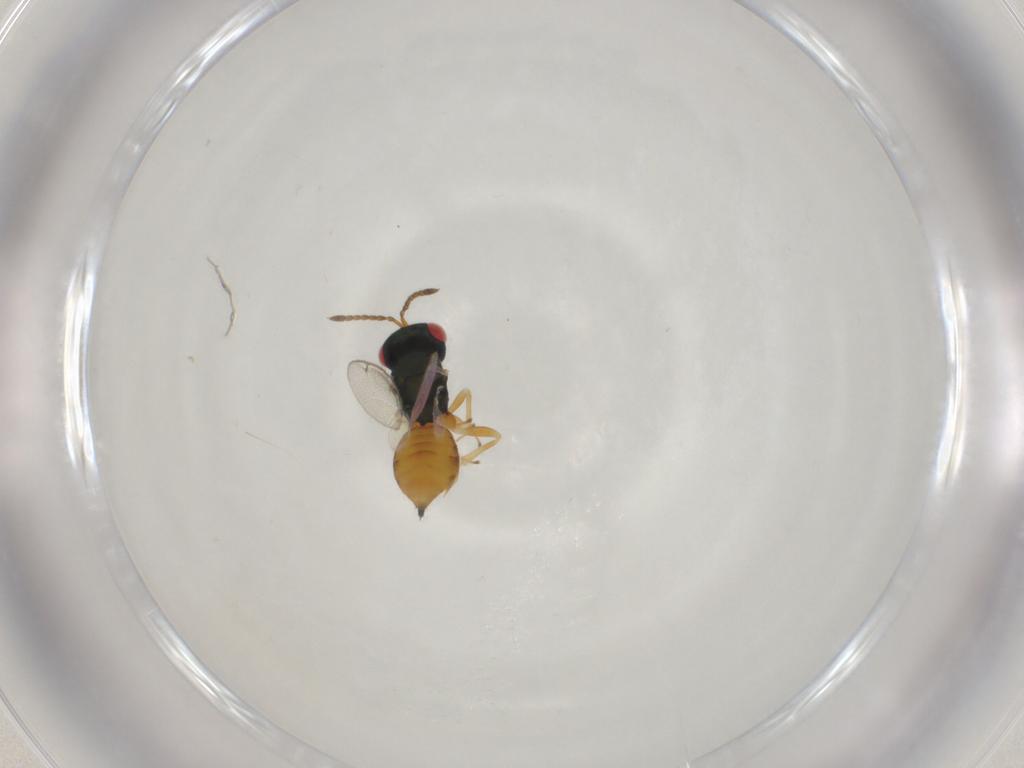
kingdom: Animalia
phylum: Arthropoda
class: Insecta
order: Hymenoptera
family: Pteromalidae
